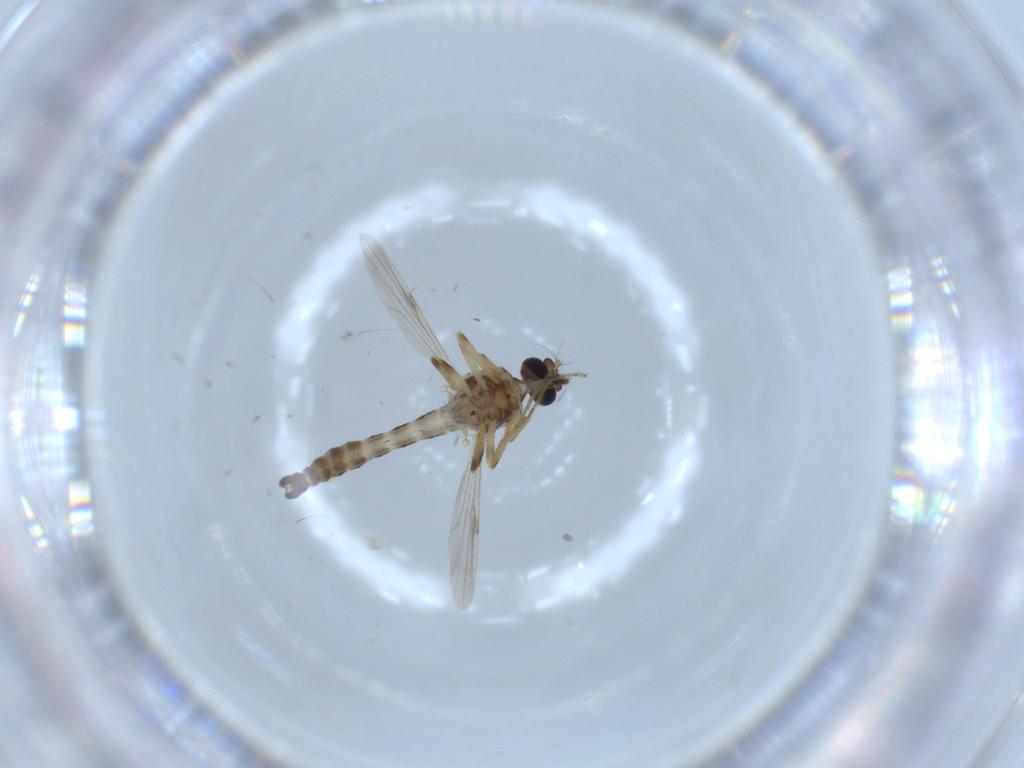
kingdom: Animalia
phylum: Arthropoda
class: Insecta
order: Diptera
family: Ceratopogonidae
